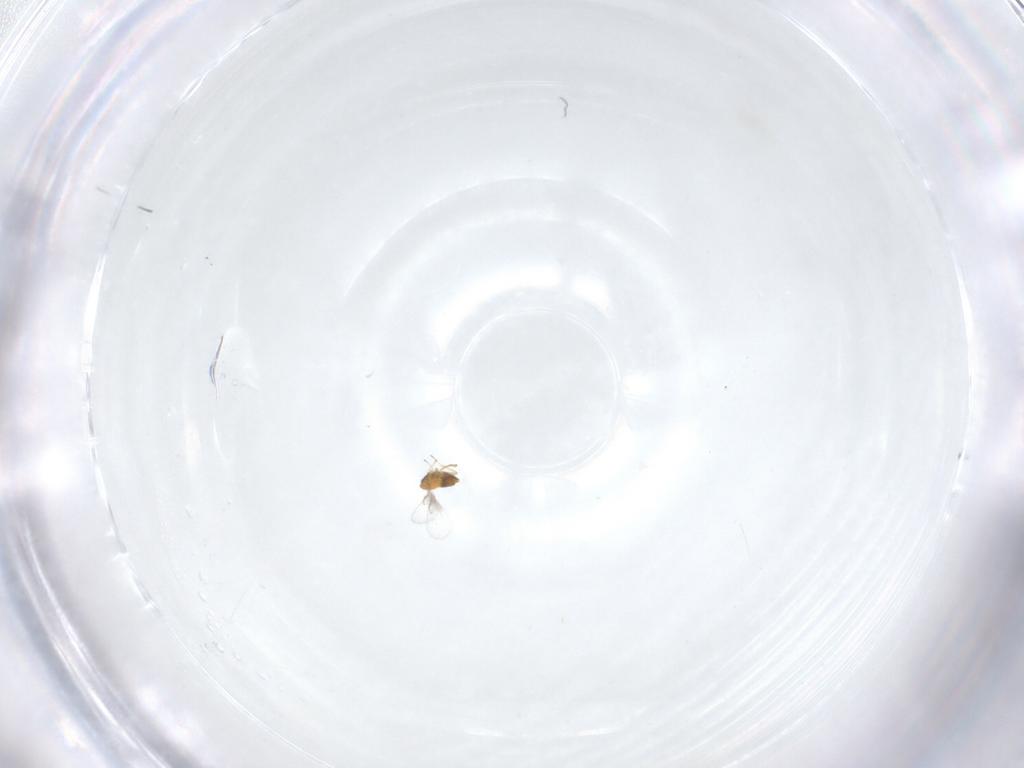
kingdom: Animalia
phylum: Arthropoda
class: Insecta
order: Hymenoptera
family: Trichogrammatidae
